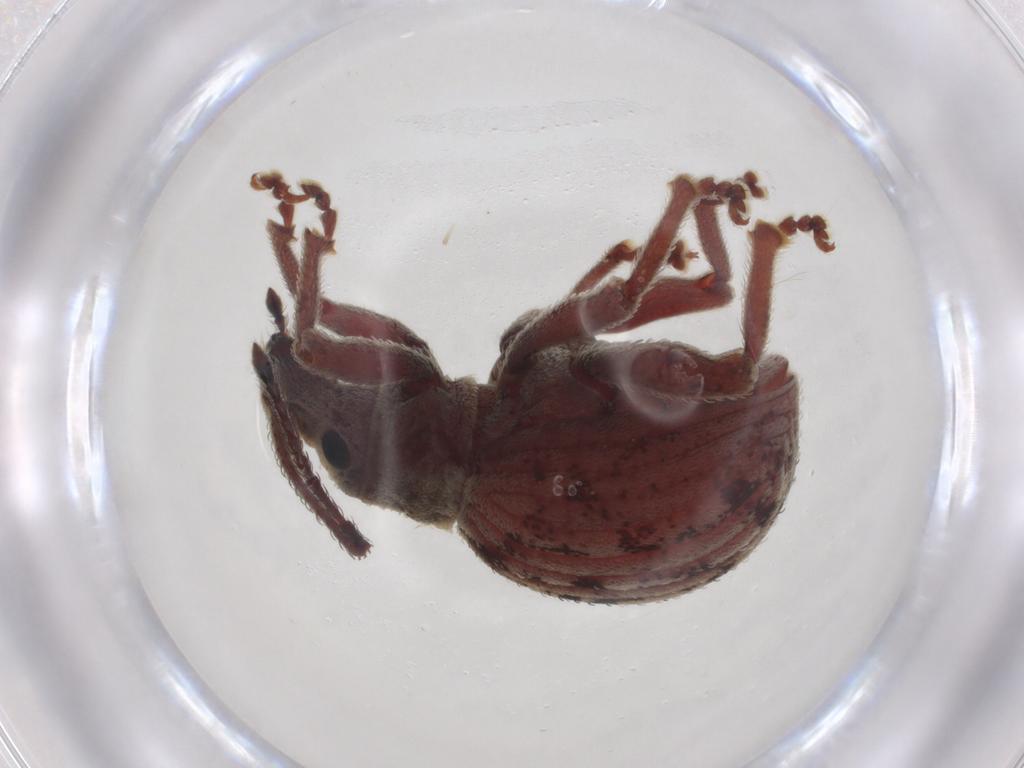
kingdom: Animalia
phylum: Arthropoda
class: Insecta
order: Coleoptera
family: Curculionidae
